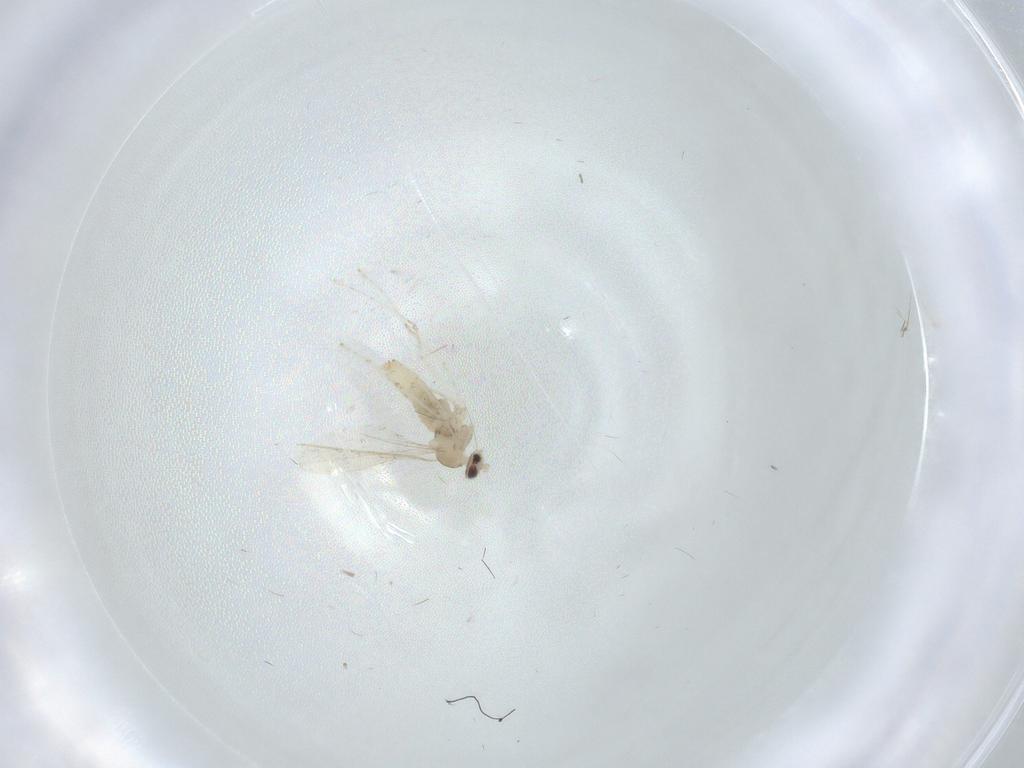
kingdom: Animalia
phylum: Arthropoda
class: Insecta
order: Diptera
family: Cecidomyiidae
